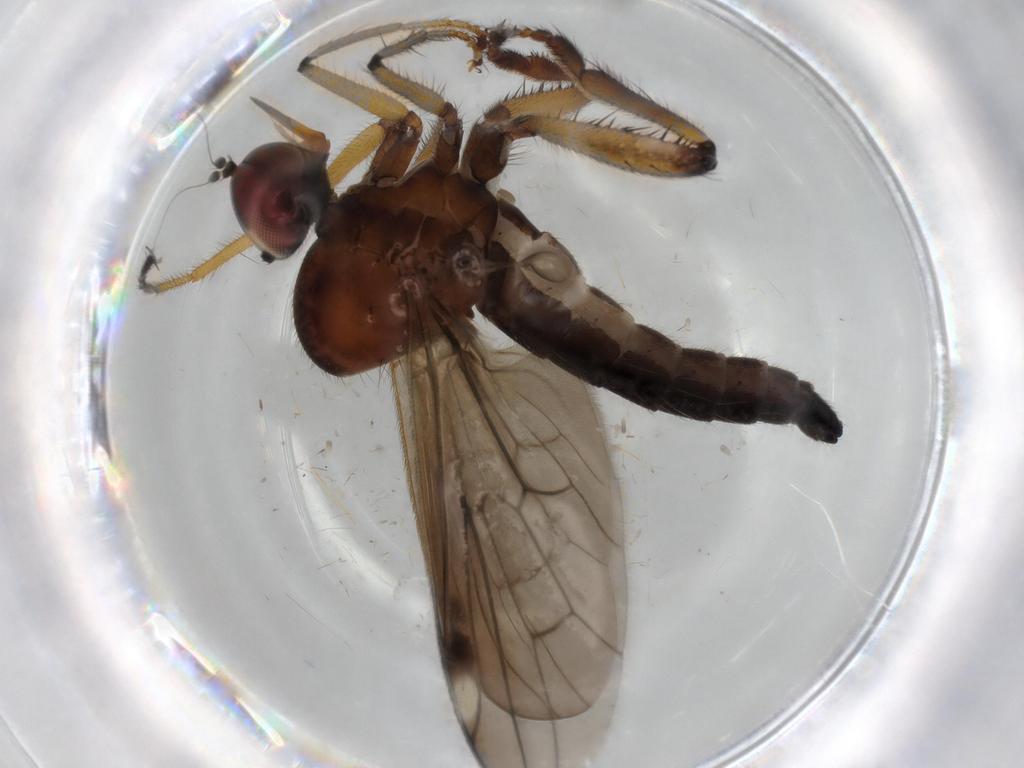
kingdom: Animalia
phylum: Arthropoda
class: Insecta
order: Diptera
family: Hybotidae
